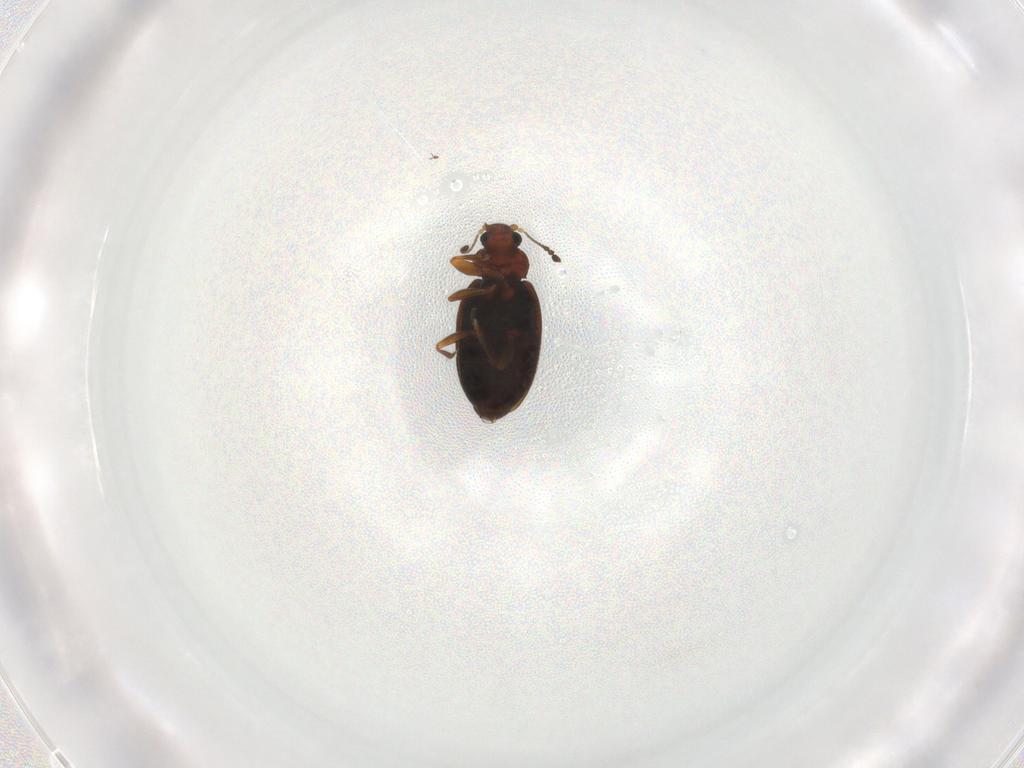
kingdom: Animalia
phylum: Arthropoda
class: Insecta
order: Coleoptera
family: Latridiidae
